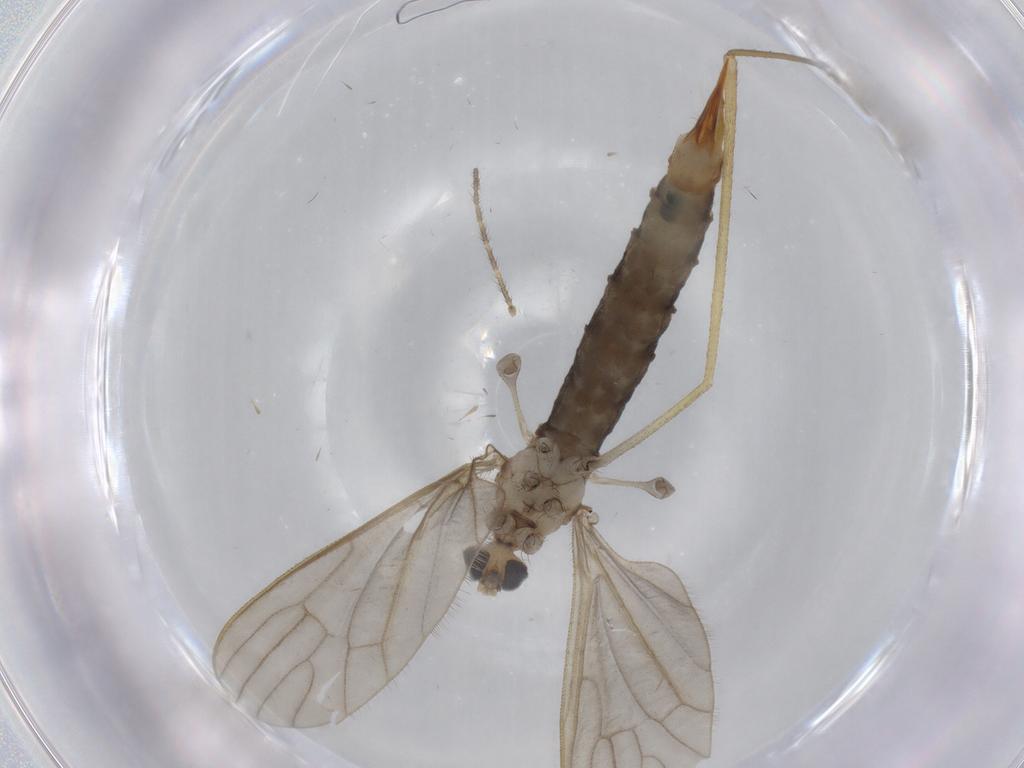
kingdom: Animalia
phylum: Arthropoda
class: Insecta
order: Diptera
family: Limoniidae
